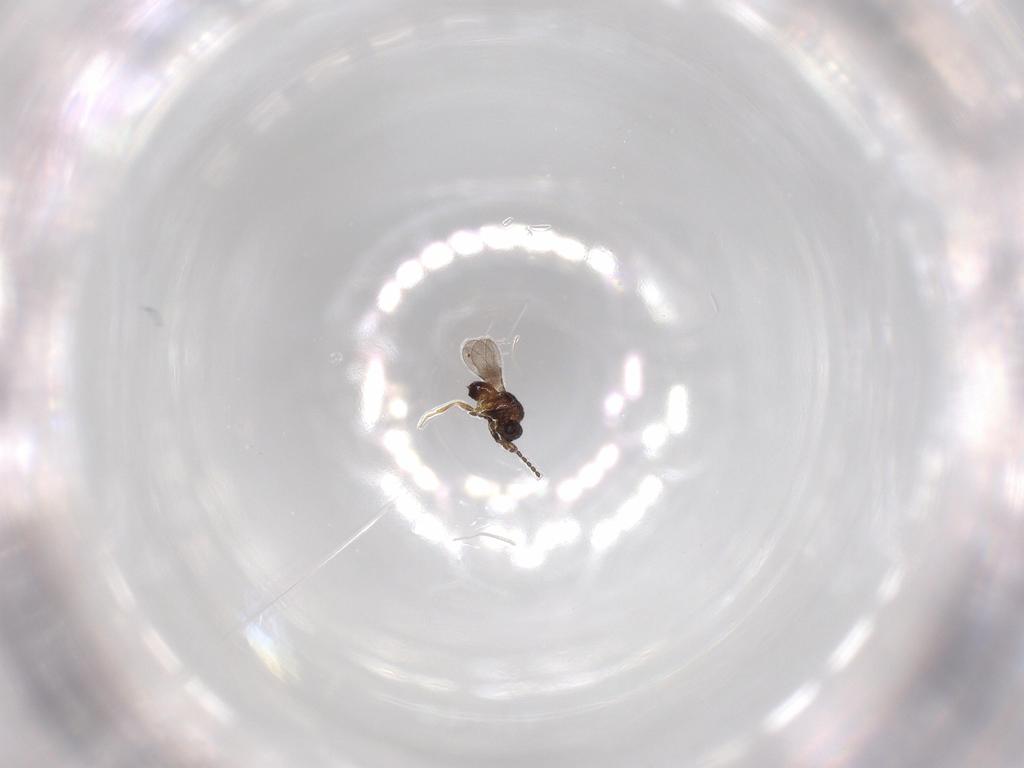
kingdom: Animalia
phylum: Arthropoda
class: Insecta
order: Hymenoptera
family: Ceraphronidae
